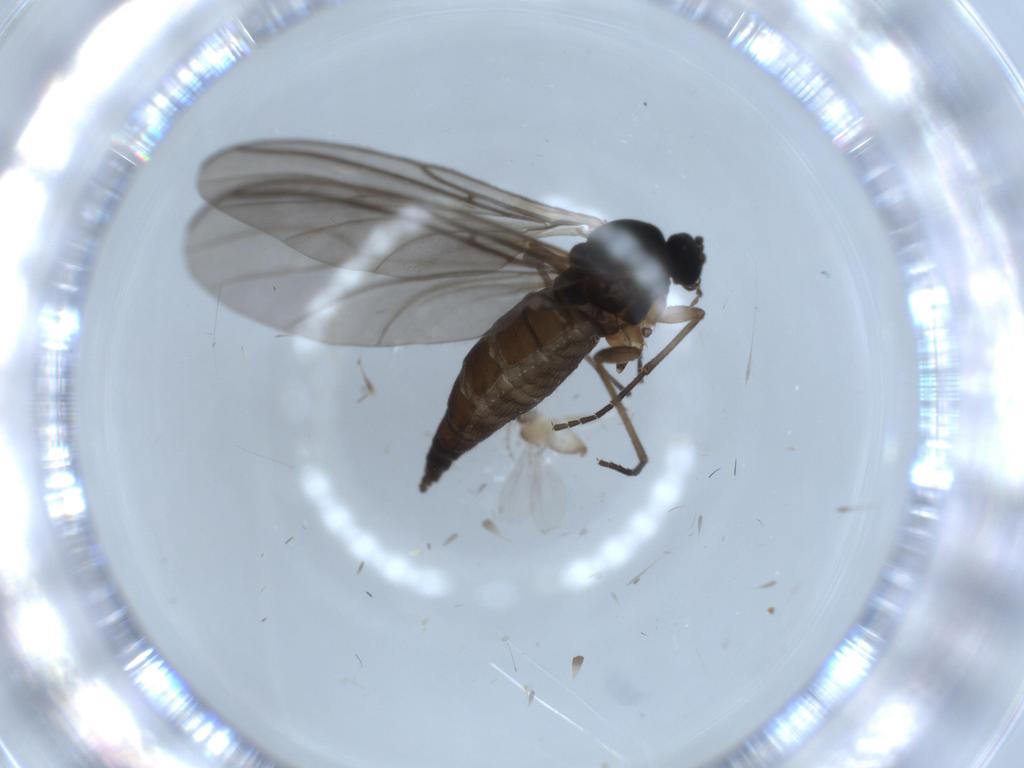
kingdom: Animalia
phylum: Arthropoda
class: Insecta
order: Diptera
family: Cecidomyiidae
